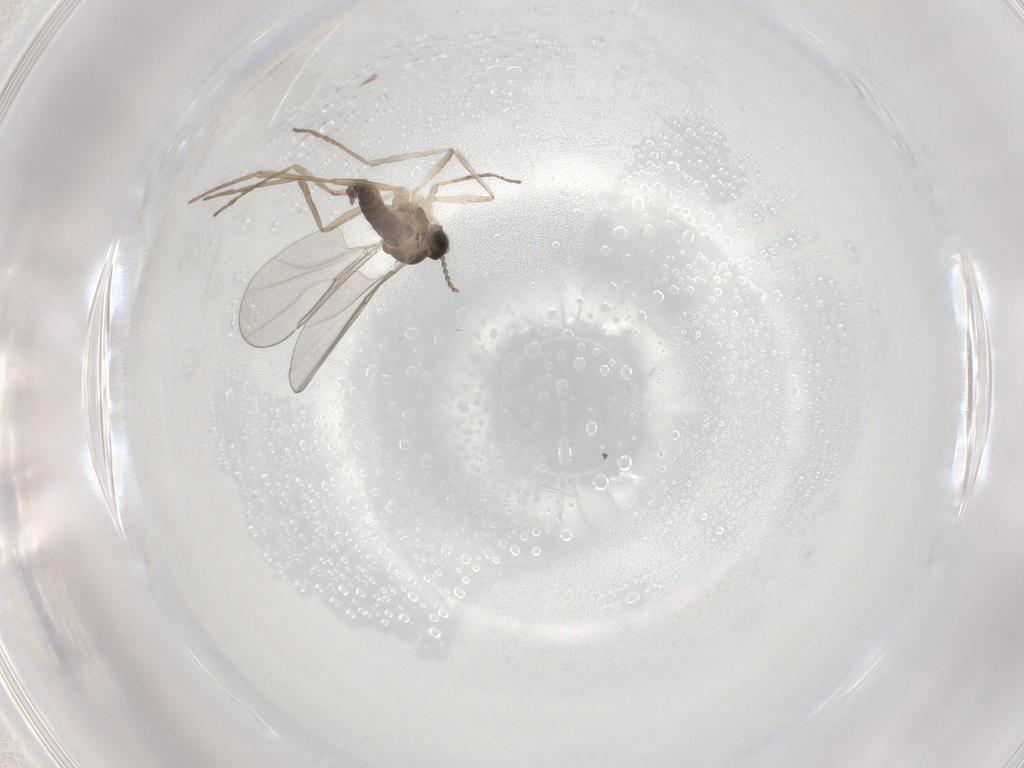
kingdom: Animalia
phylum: Arthropoda
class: Insecta
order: Diptera
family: Cecidomyiidae
